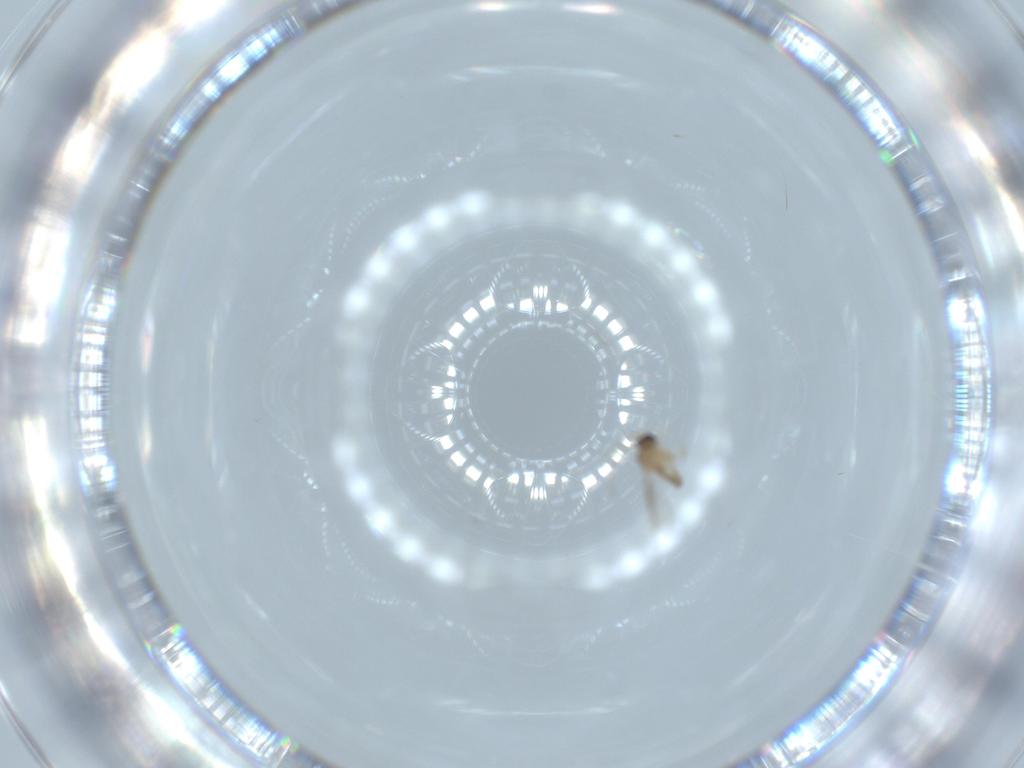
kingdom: Animalia
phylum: Arthropoda
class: Insecta
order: Diptera
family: Cecidomyiidae
